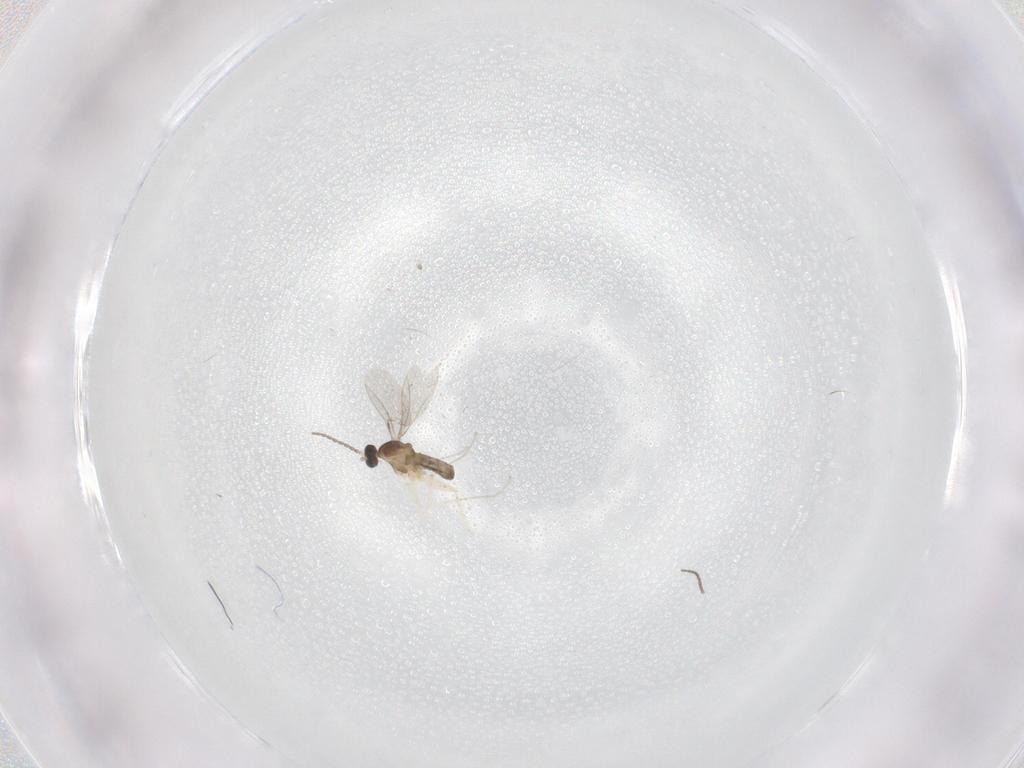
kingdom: Animalia
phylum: Arthropoda
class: Insecta
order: Diptera
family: Cecidomyiidae
